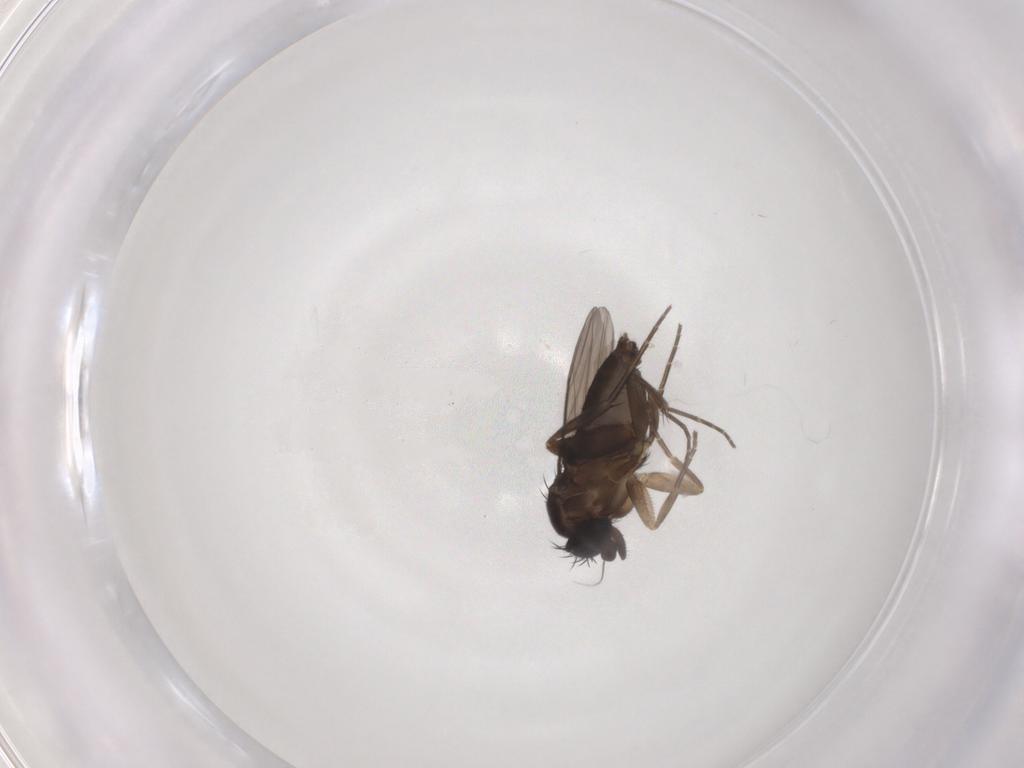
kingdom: Animalia
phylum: Arthropoda
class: Insecta
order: Diptera
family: Phoridae
